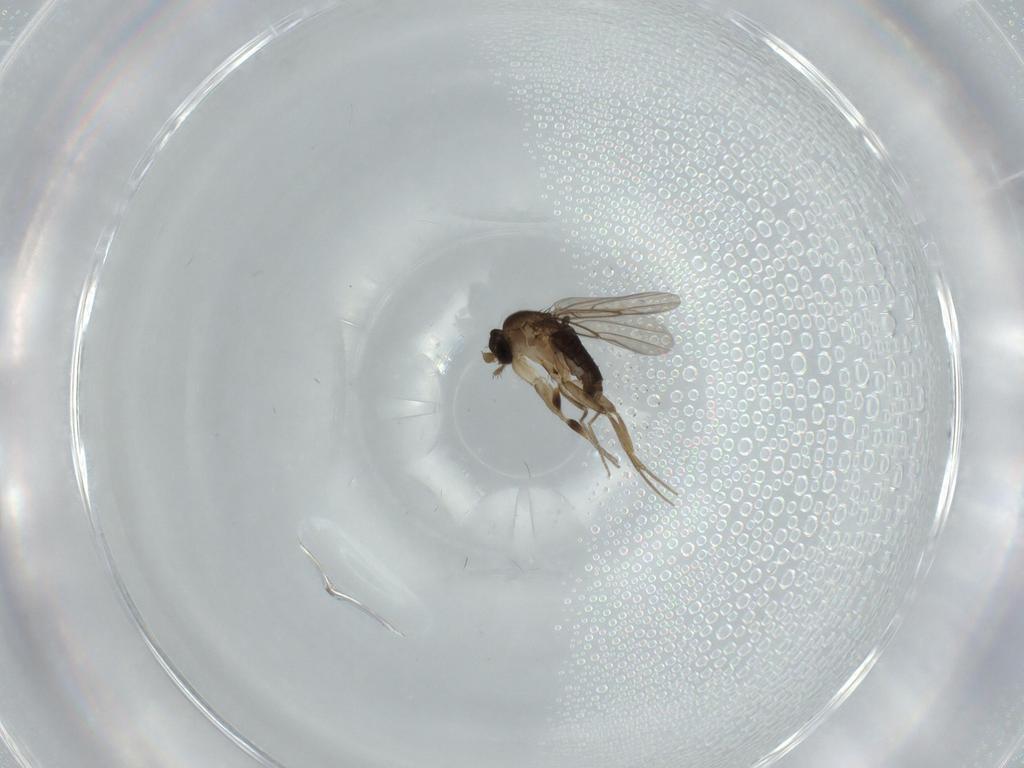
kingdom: Animalia
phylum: Arthropoda
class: Insecta
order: Diptera
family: Phoridae
